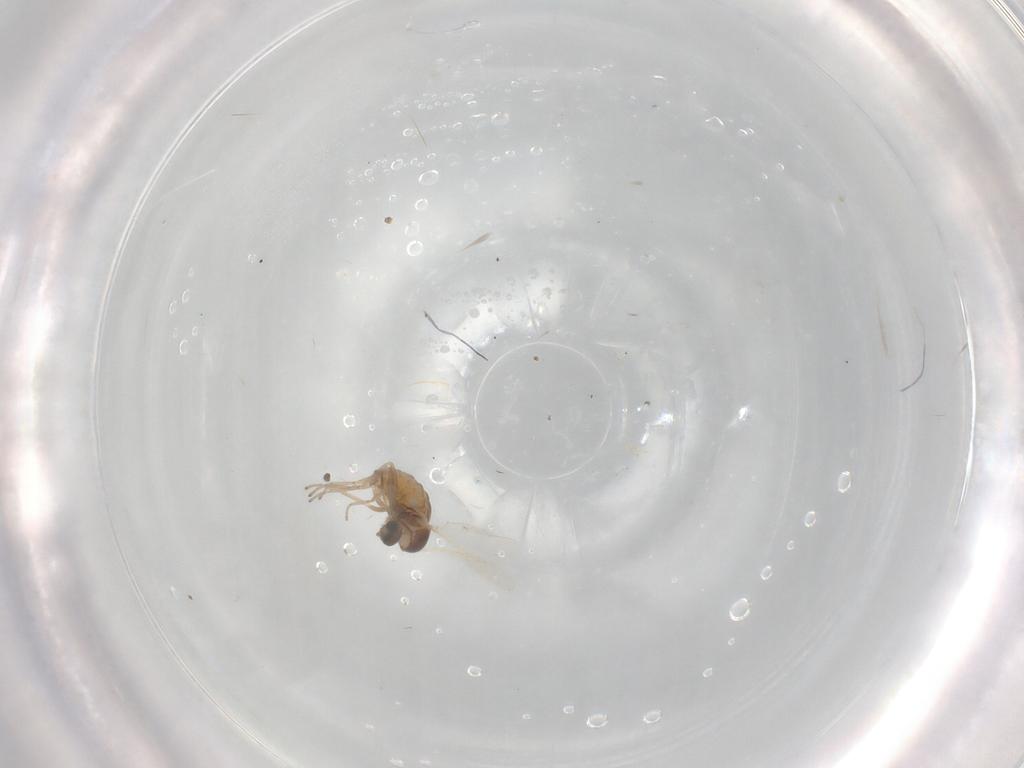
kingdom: Animalia
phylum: Arthropoda
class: Insecta
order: Diptera
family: Cecidomyiidae
